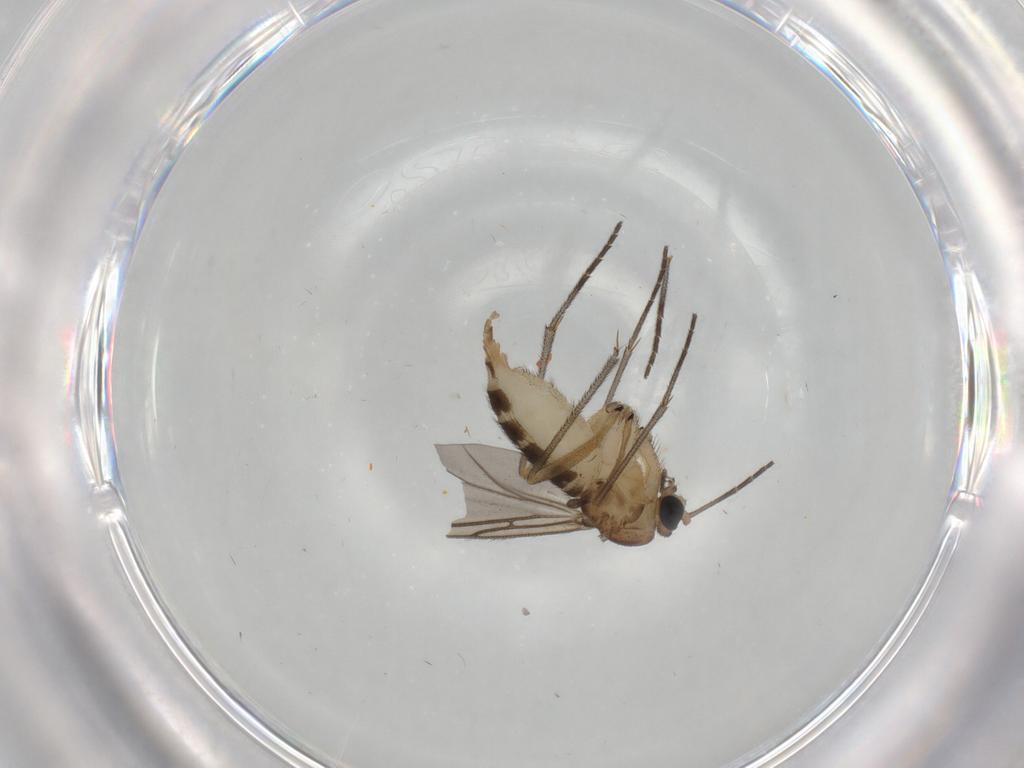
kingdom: Animalia
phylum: Arthropoda
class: Insecta
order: Diptera
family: Sciaridae
